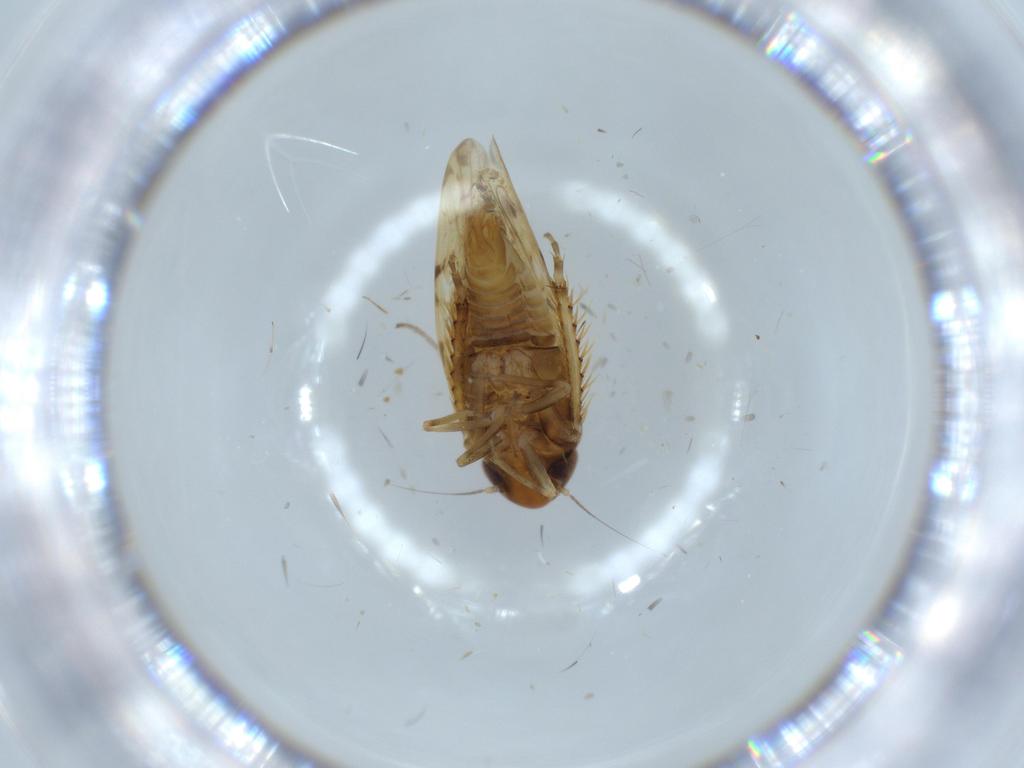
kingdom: Animalia
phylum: Arthropoda
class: Insecta
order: Hemiptera
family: Cicadellidae
